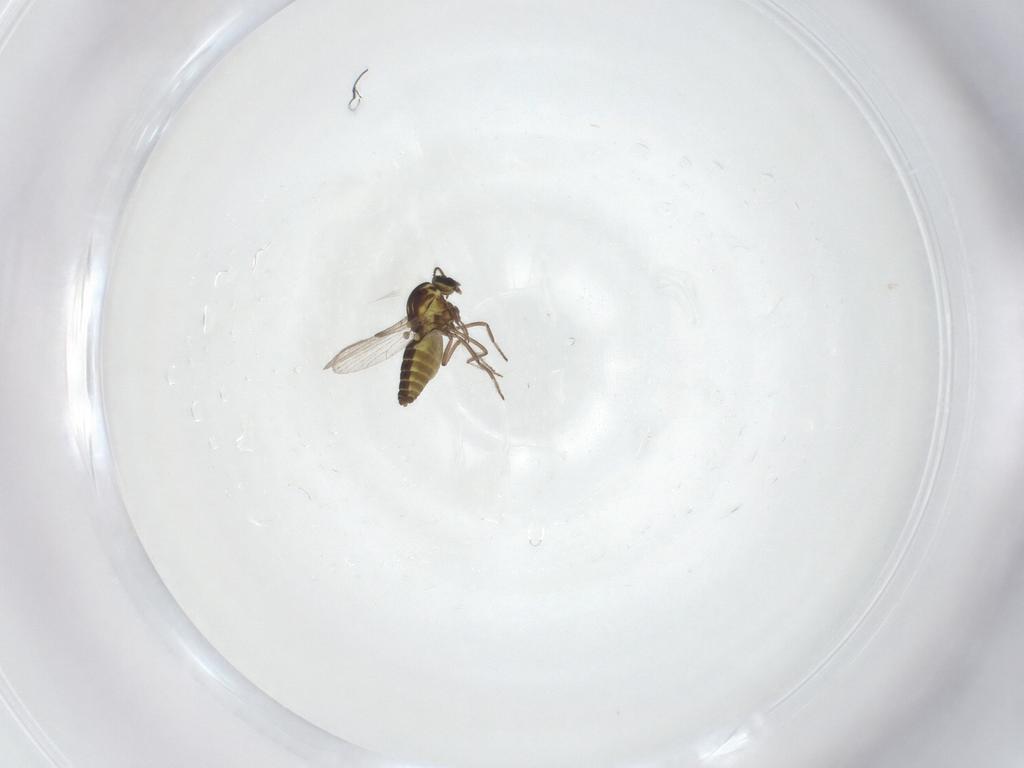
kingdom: Animalia
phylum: Arthropoda
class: Insecta
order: Diptera
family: Ceratopogonidae
